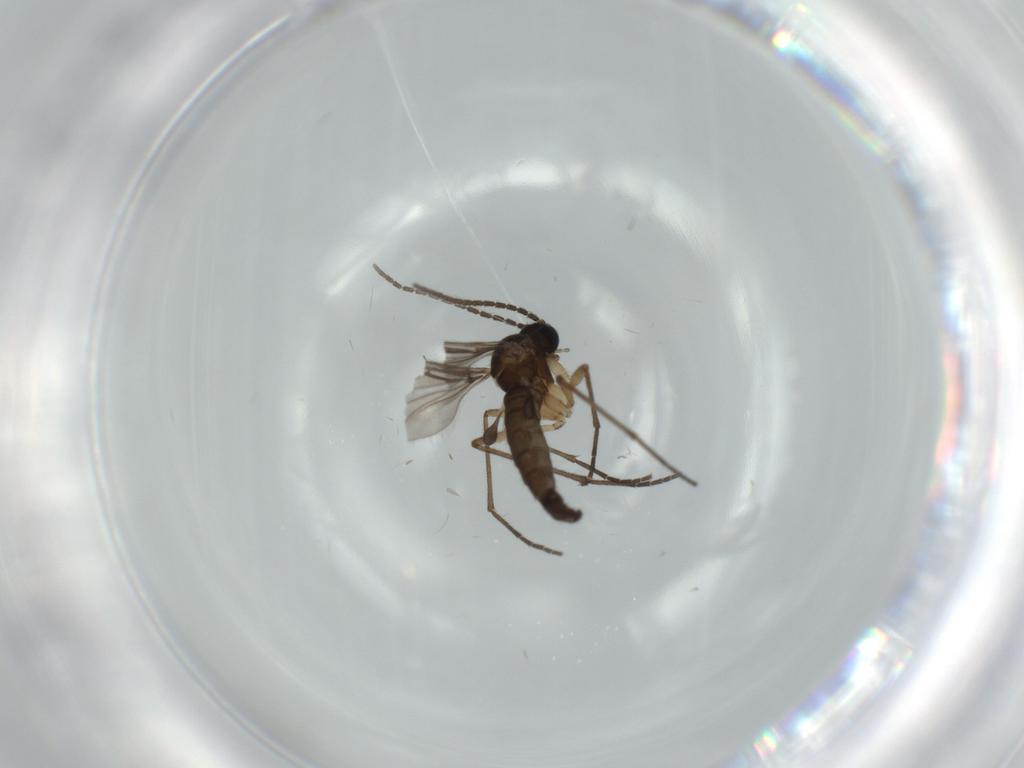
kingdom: Animalia
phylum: Arthropoda
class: Insecta
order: Diptera
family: Sciaridae
